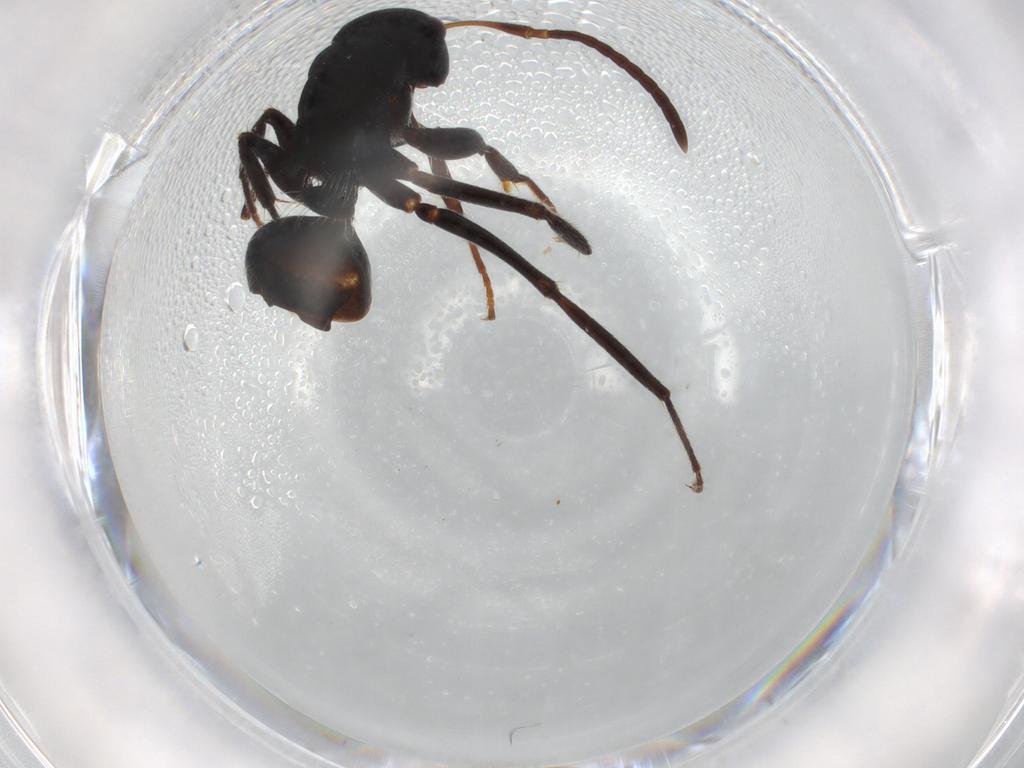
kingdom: Animalia
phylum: Arthropoda
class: Insecta
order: Hymenoptera
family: Formicidae
